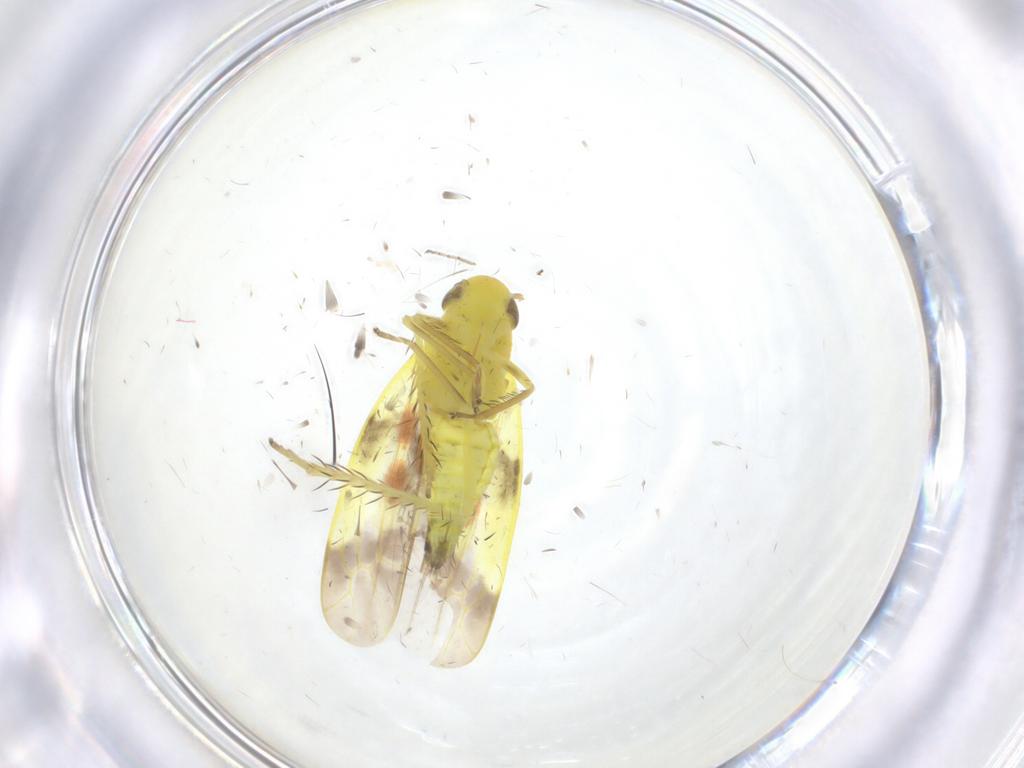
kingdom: Animalia
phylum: Arthropoda
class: Insecta
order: Hemiptera
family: Cicadellidae
